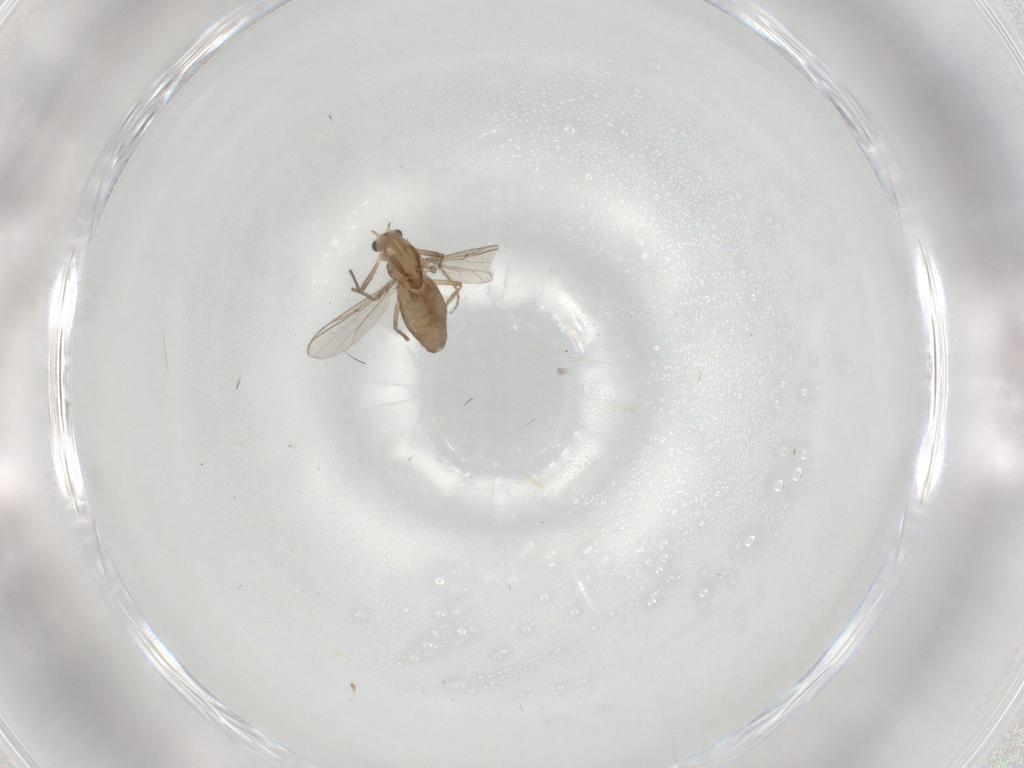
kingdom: Animalia
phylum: Arthropoda
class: Insecta
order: Diptera
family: Chironomidae
